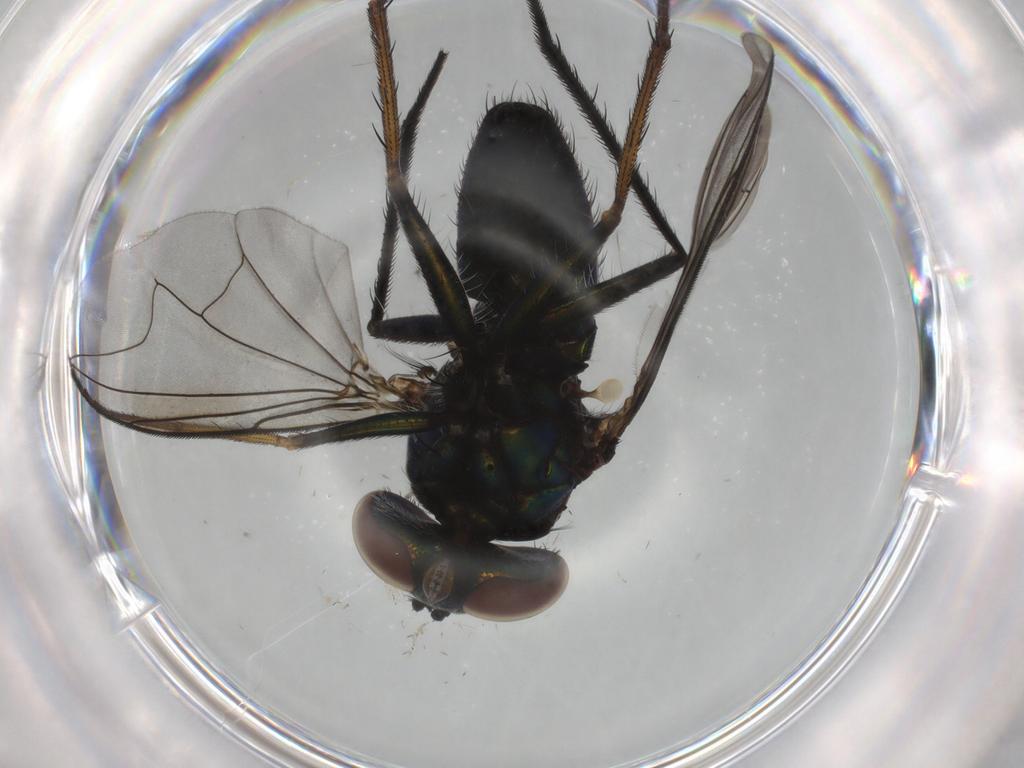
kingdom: Animalia
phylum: Arthropoda
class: Insecta
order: Diptera
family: Dolichopodidae
